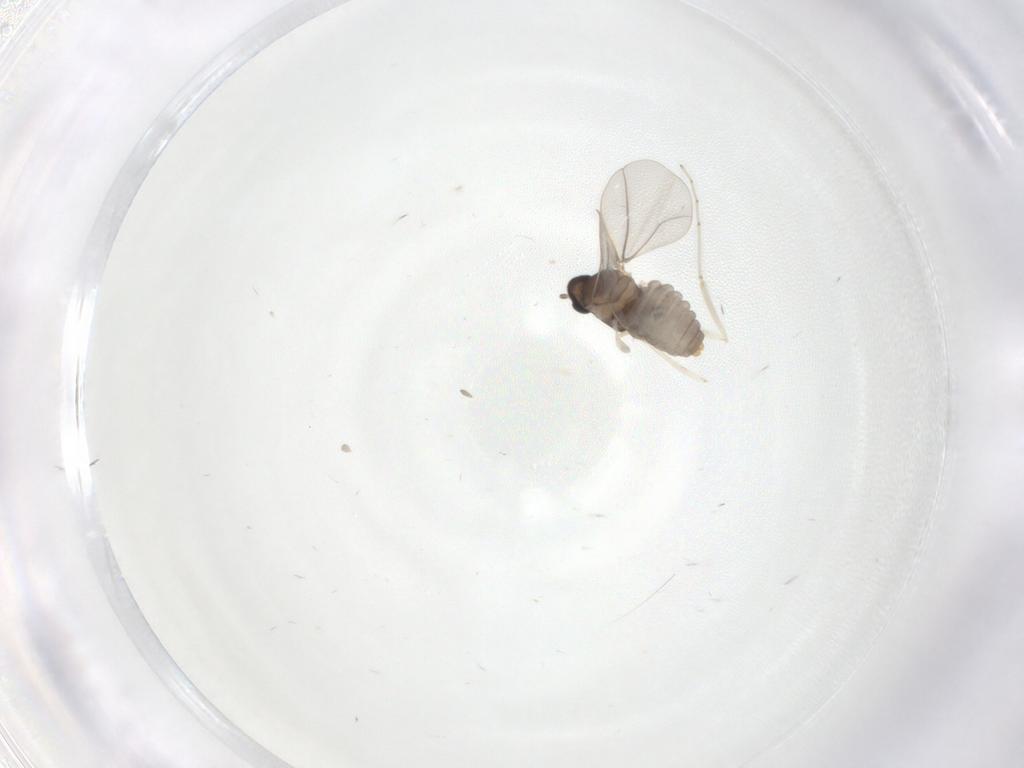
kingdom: Animalia
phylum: Arthropoda
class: Insecta
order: Diptera
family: Cecidomyiidae
